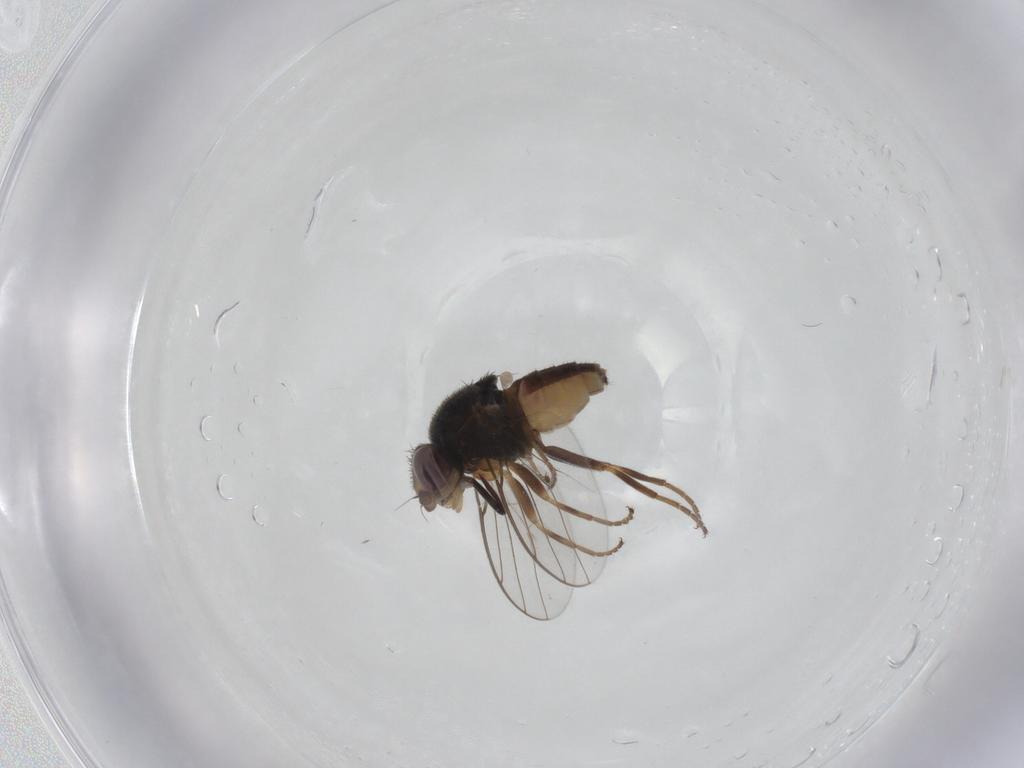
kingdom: Animalia
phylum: Arthropoda
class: Insecta
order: Diptera
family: Chloropidae
